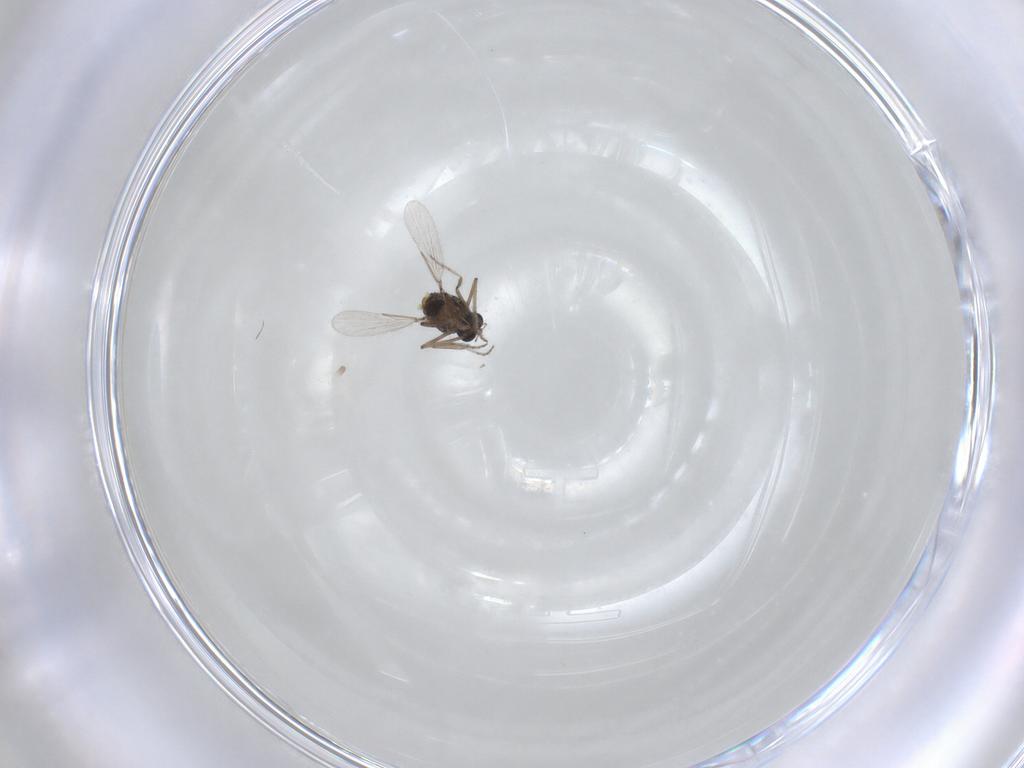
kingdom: Animalia
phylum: Arthropoda
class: Insecta
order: Diptera
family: Ceratopogonidae
